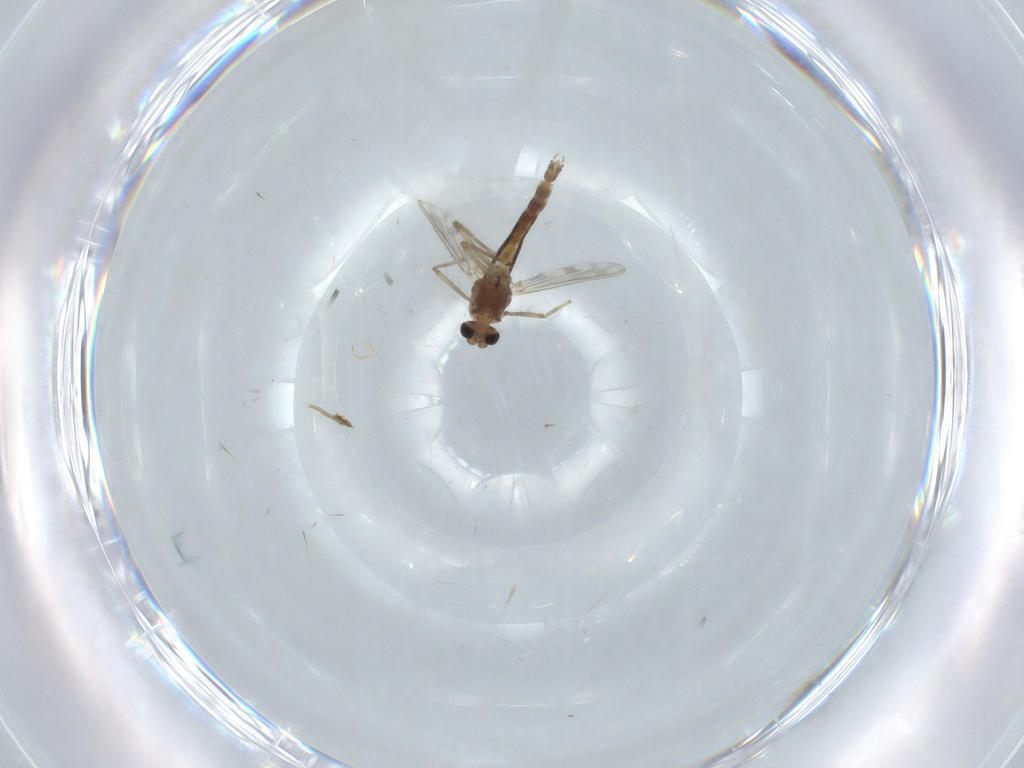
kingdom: Animalia
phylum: Arthropoda
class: Insecta
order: Diptera
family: Chironomidae
